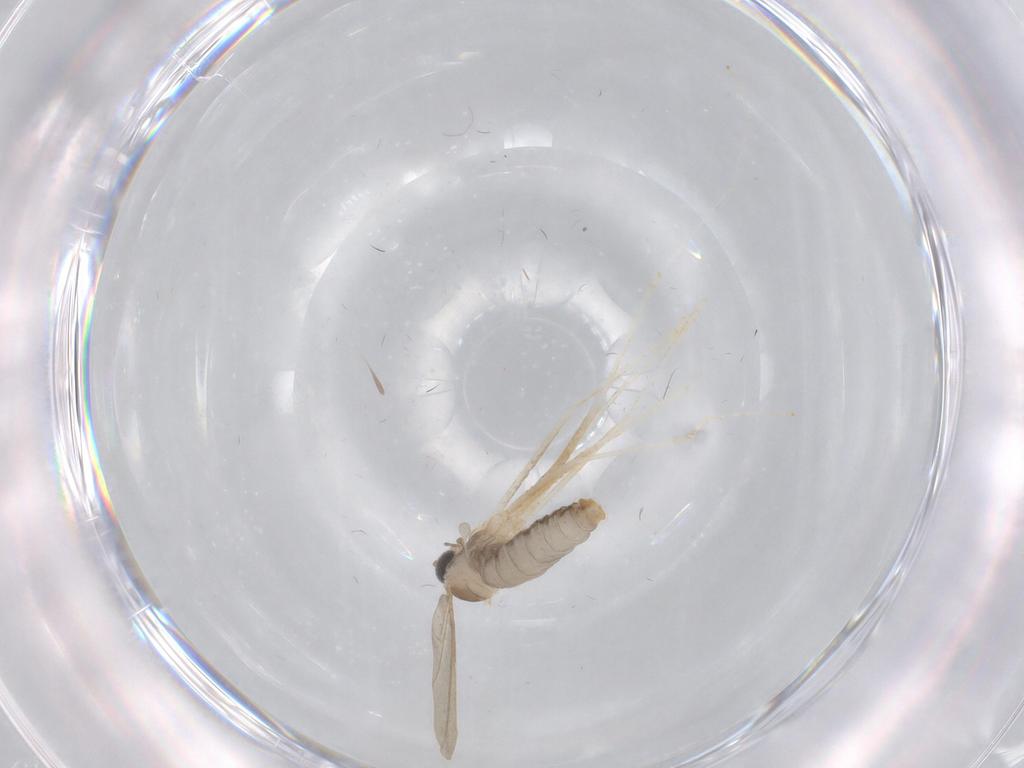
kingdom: Animalia
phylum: Arthropoda
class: Insecta
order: Diptera
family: Cecidomyiidae
